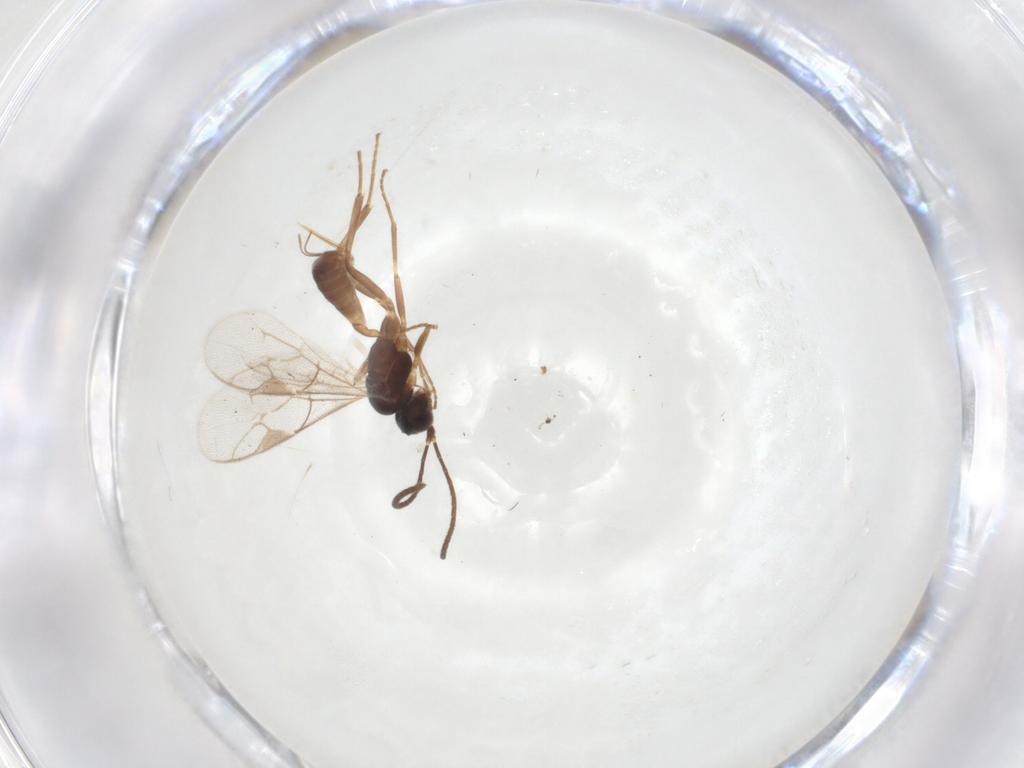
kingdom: Animalia
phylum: Arthropoda
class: Insecta
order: Hymenoptera
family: Ichneumonidae
